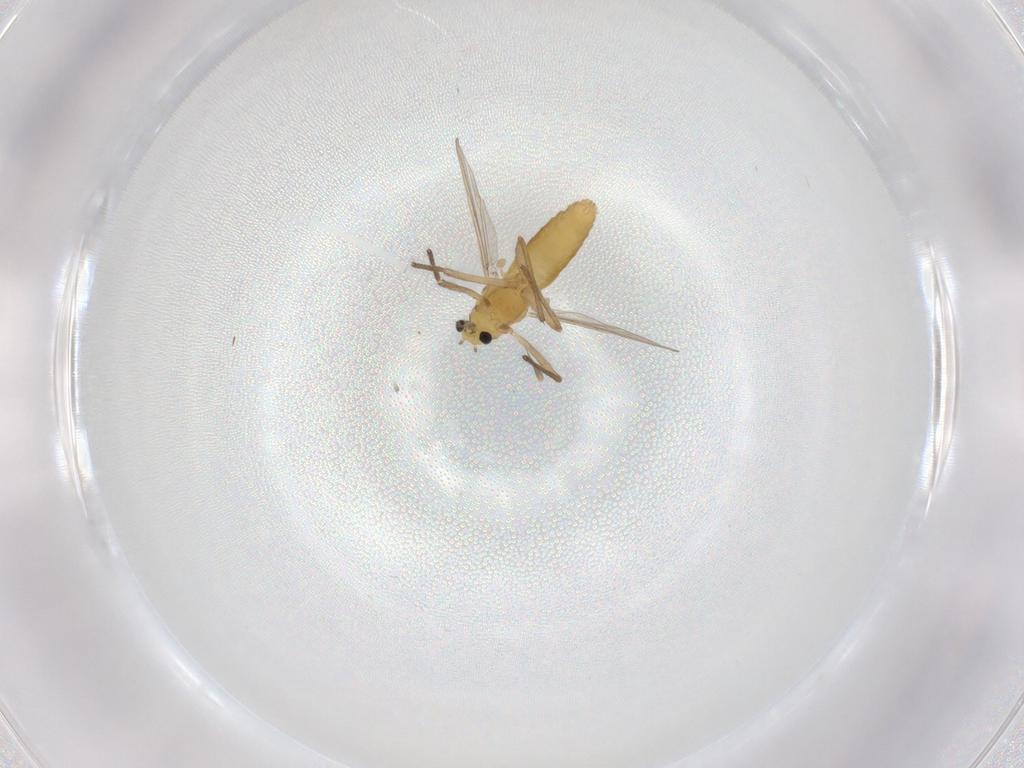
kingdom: Animalia
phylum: Arthropoda
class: Insecta
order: Diptera
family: Chironomidae
